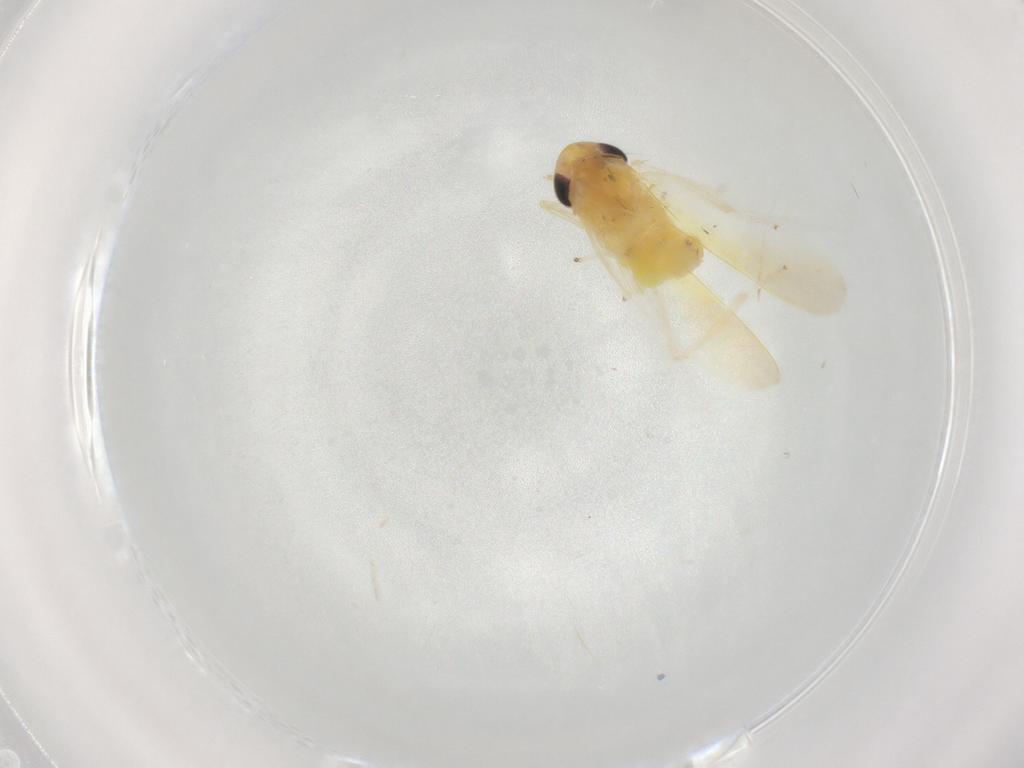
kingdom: Animalia
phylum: Arthropoda
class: Insecta
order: Hemiptera
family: Cicadellidae
